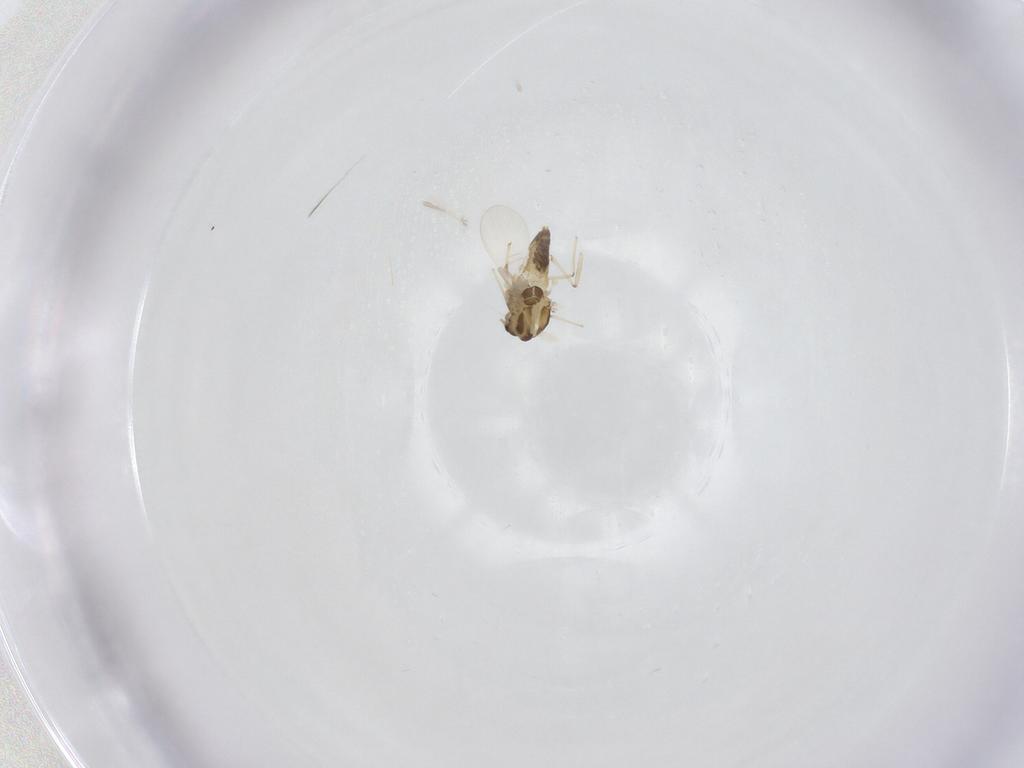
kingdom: Animalia
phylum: Arthropoda
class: Insecta
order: Diptera
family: Chironomidae
